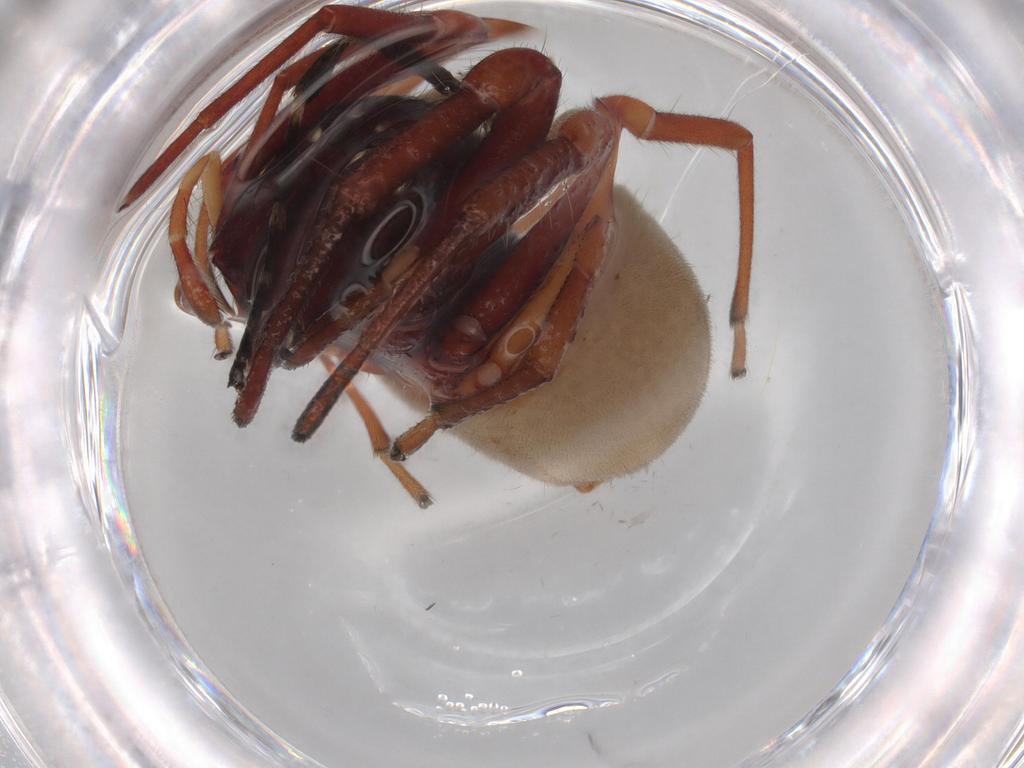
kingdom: Animalia
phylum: Arthropoda
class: Arachnida
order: Araneae
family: Trachelidae
